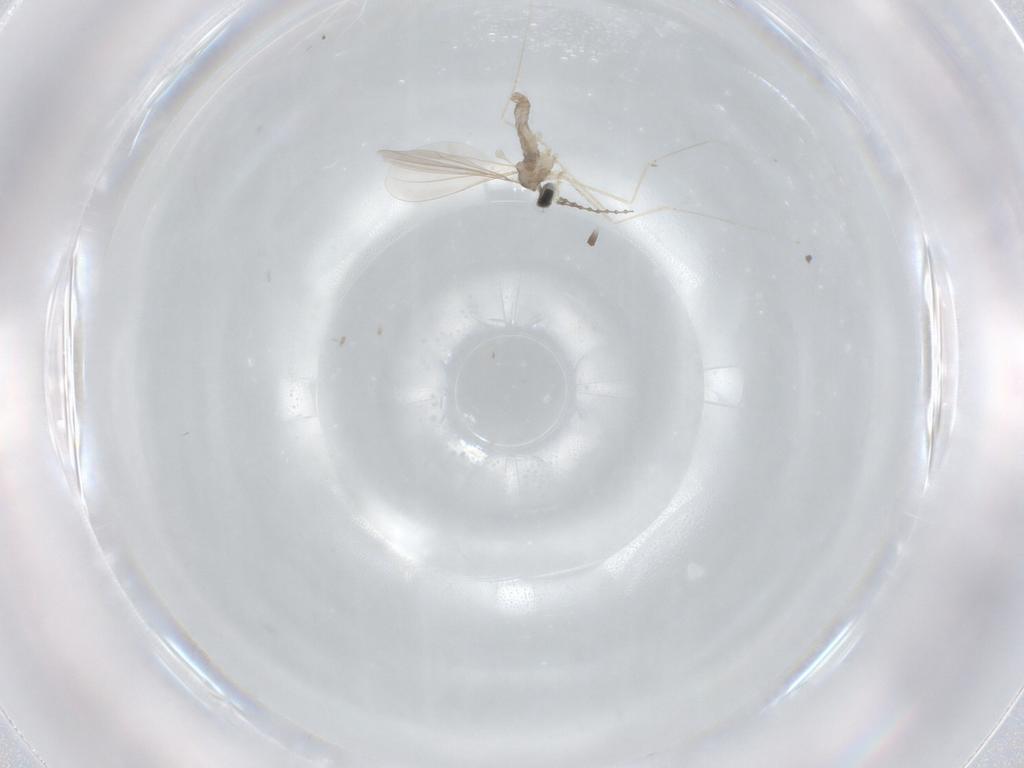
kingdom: Animalia
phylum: Arthropoda
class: Insecta
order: Diptera
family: Cecidomyiidae
